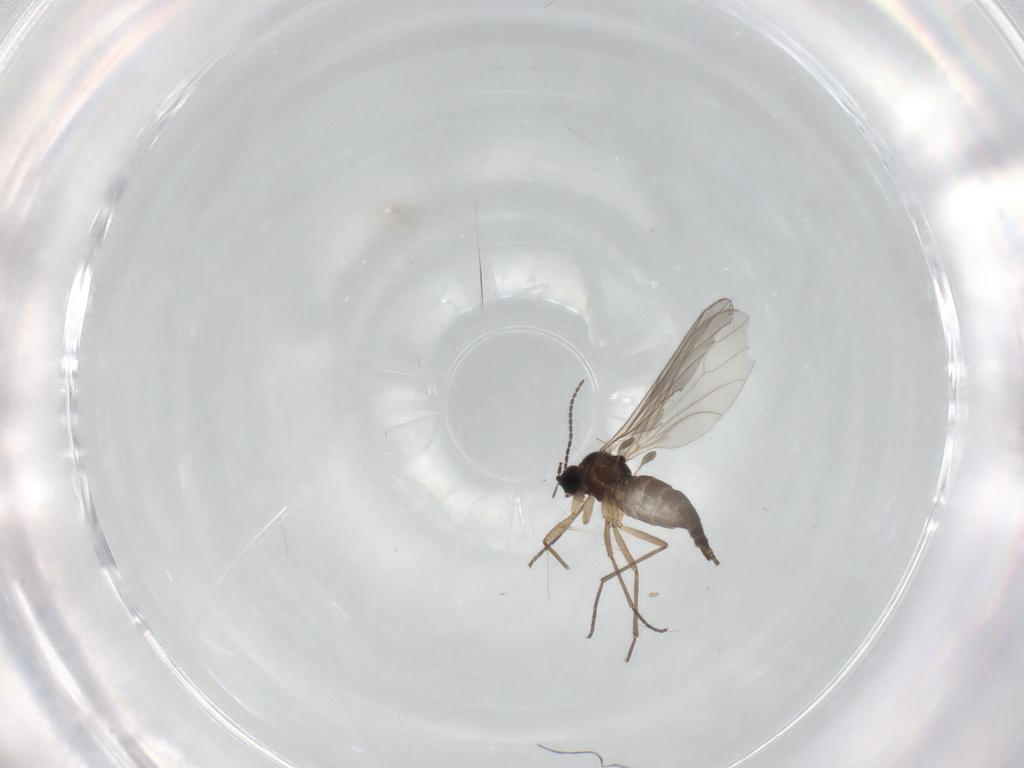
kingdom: Animalia
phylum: Arthropoda
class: Insecta
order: Diptera
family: Sciaridae
